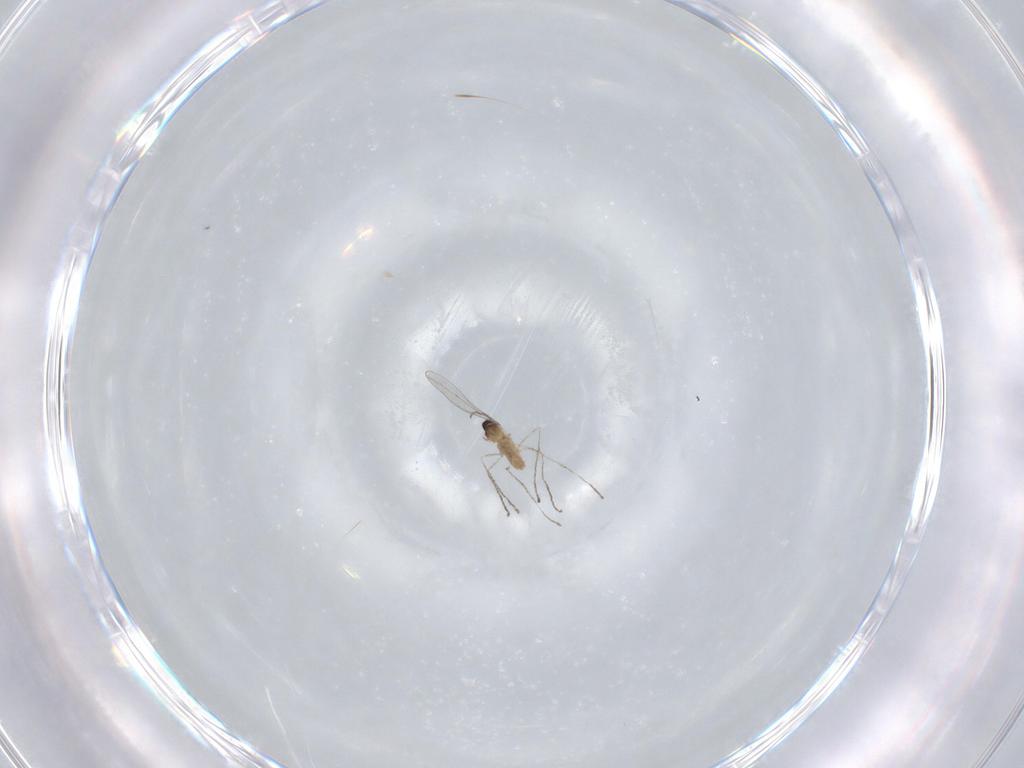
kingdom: Animalia
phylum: Arthropoda
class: Insecta
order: Diptera
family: Cecidomyiidae
